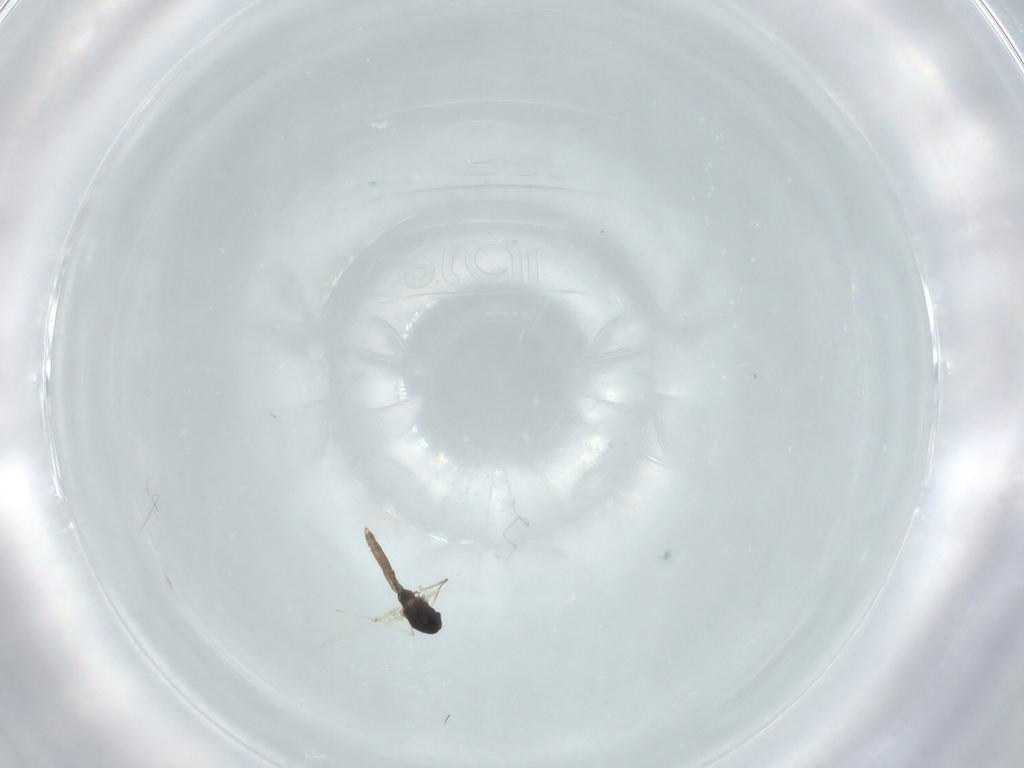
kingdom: Animalia
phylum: Arthropoda
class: Insecta
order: Diptera
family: Chironomidae
